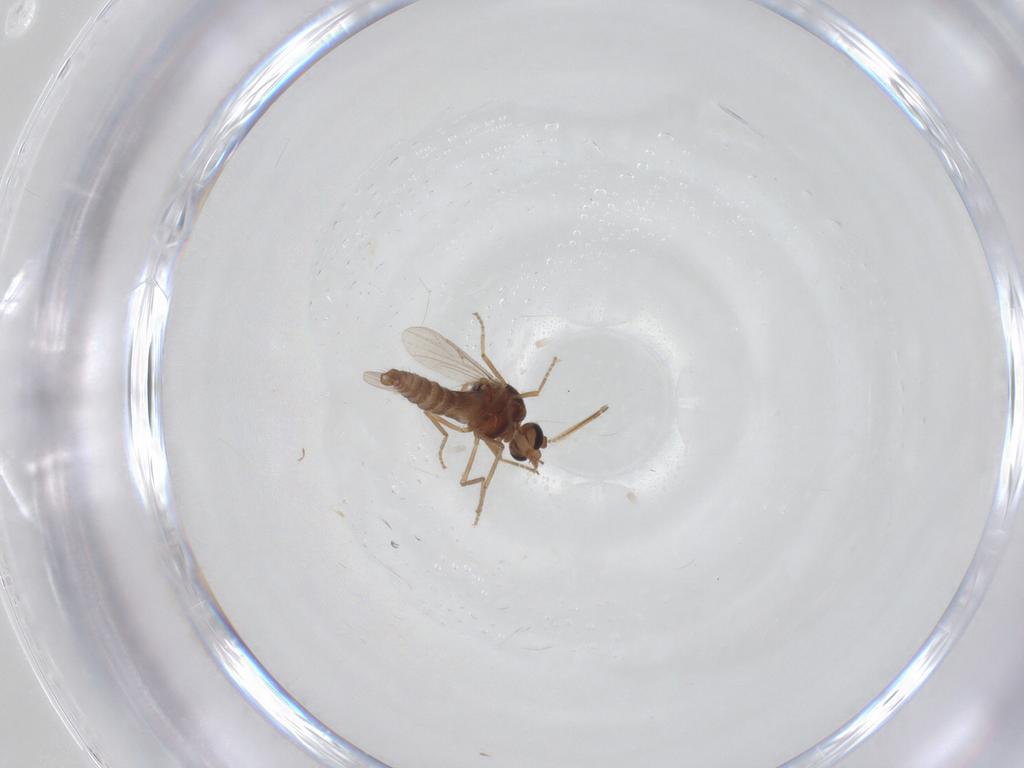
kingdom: Animalia
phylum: Arthropoda
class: Insecta
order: Diptera
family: Ceratopogonidae
